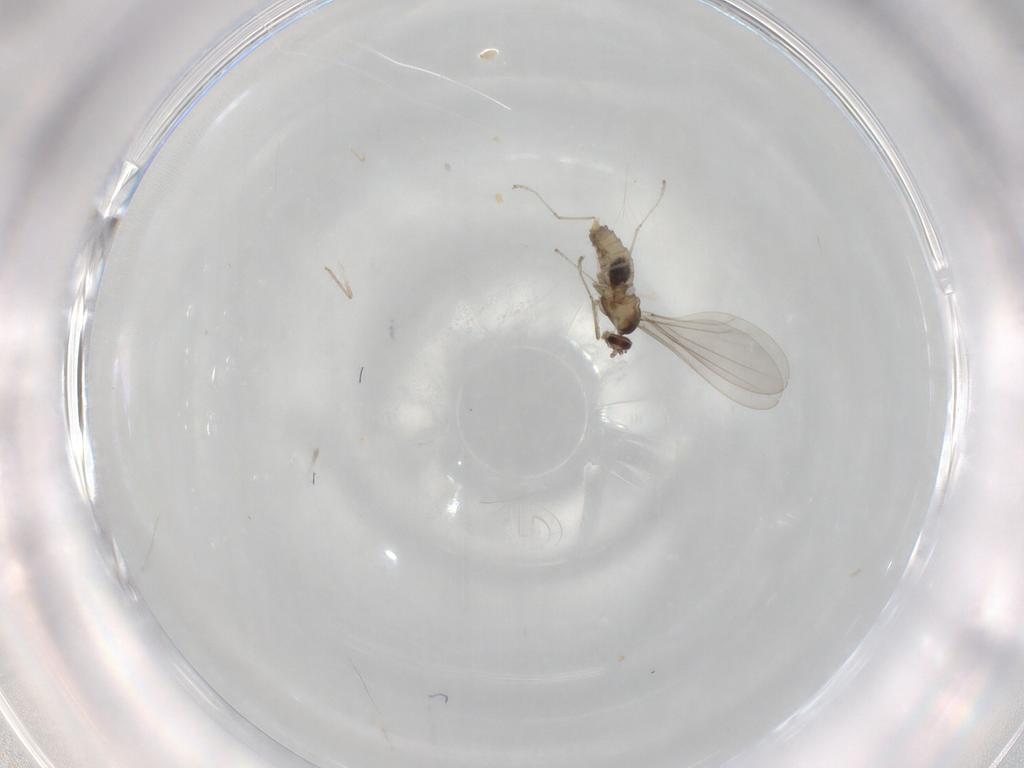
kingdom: Animalia
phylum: Arthropoda
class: Insecta
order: Diptera
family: Cecidomyiidae
